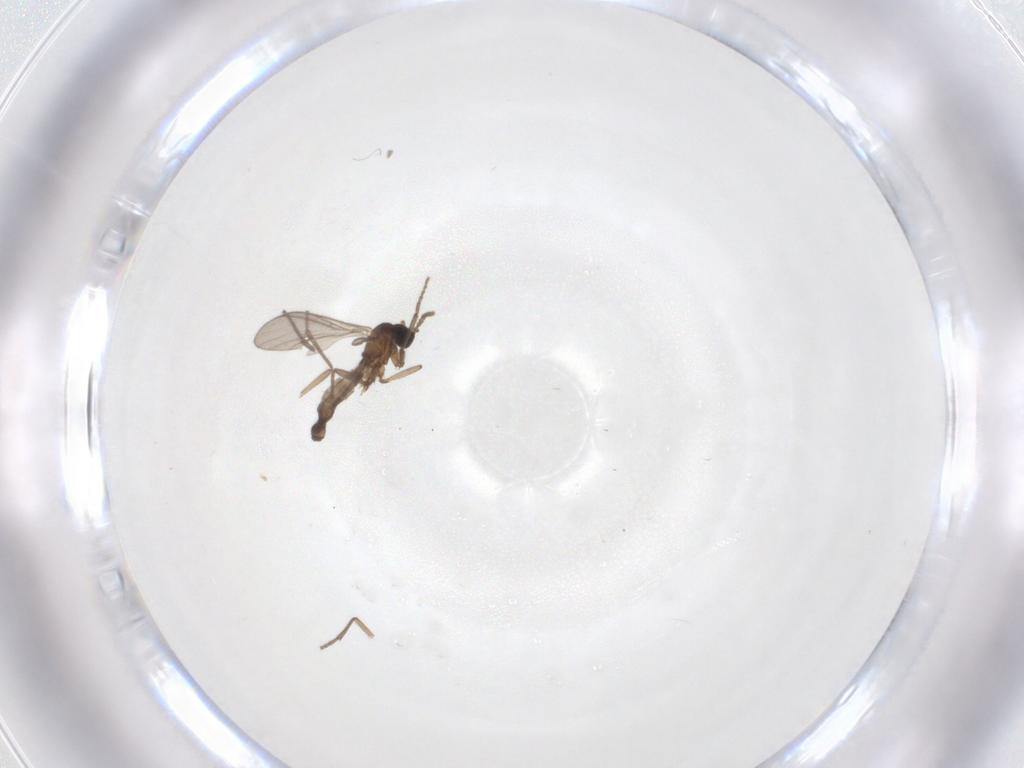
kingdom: Animalia
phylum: Arthropoda
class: Insecta
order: Diptera
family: Sciaridae
